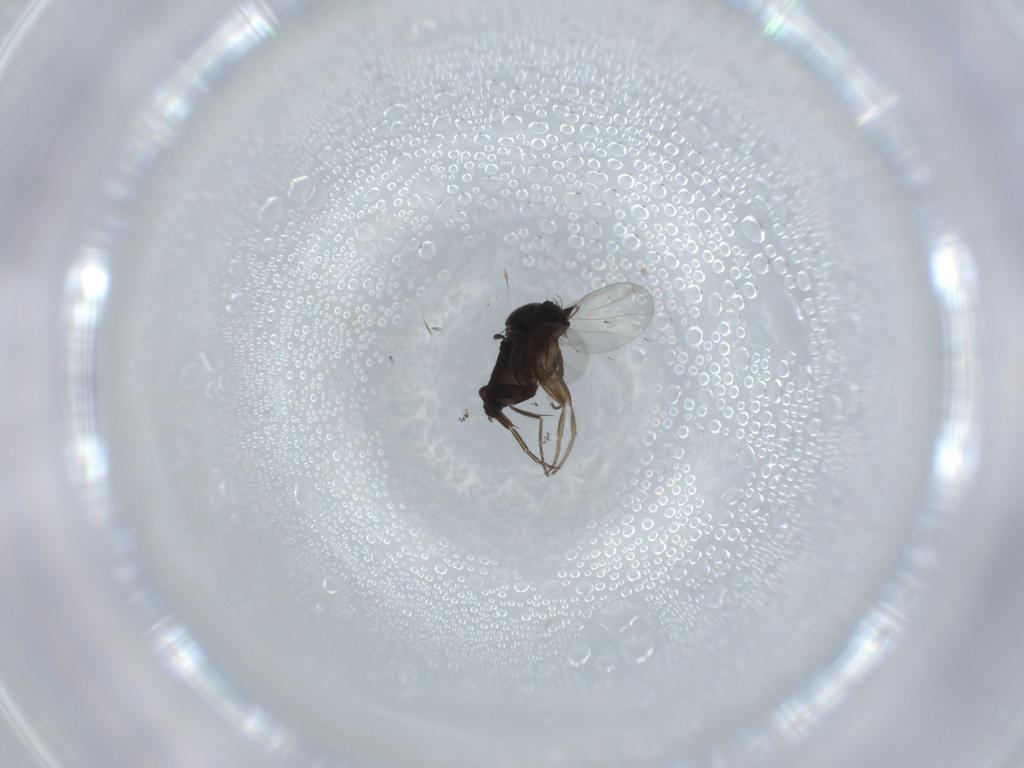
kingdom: Animalia
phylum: Arthropoda
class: Insecta
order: Diptera
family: Phoridae
